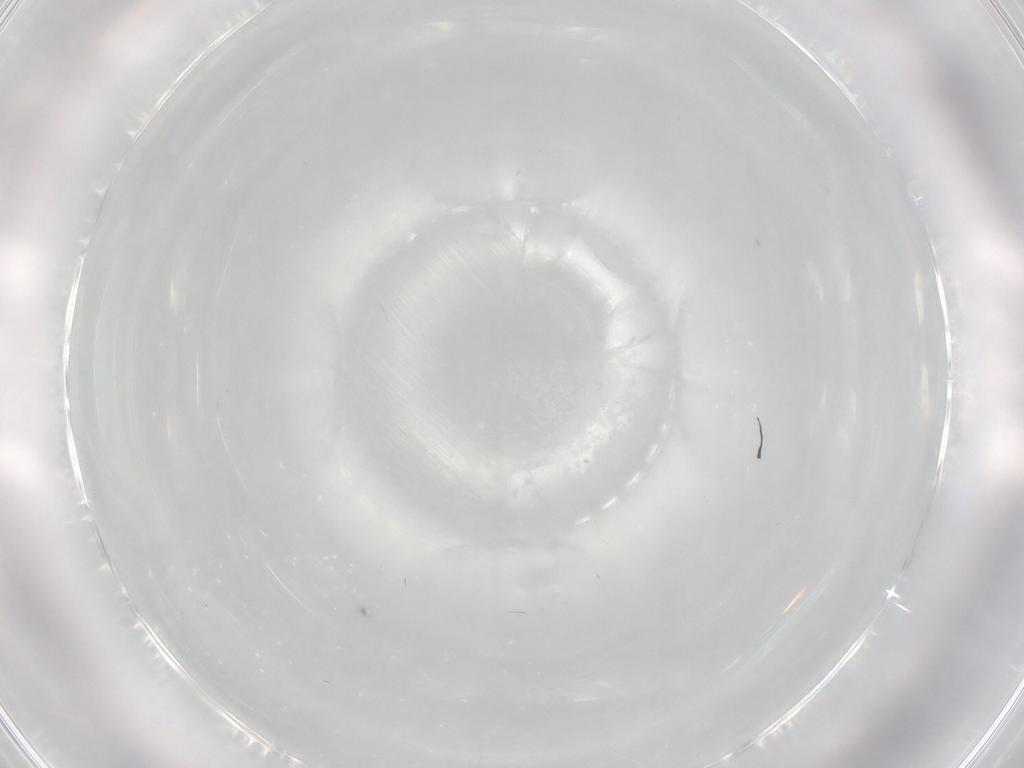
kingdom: Animalia
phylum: Arthropoda
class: Insecta
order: Hemiptera
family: Aleyrodidae
